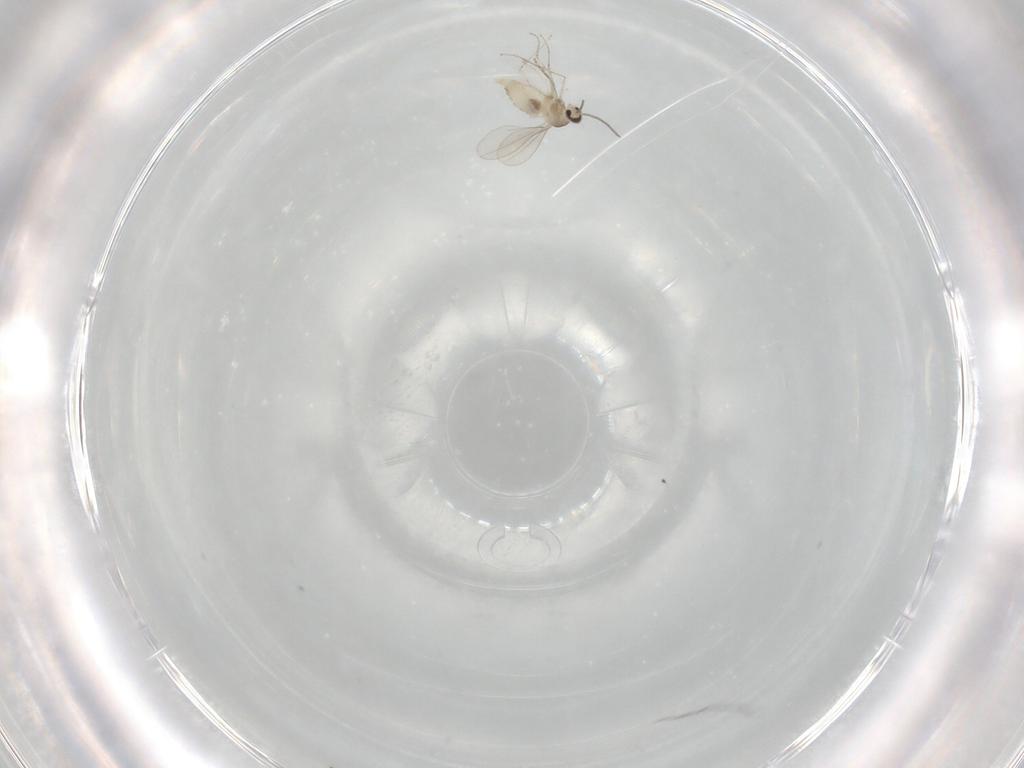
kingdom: Animalia
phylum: Arthropoda
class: Insecta
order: Diptera
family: Cecidomyiidae
